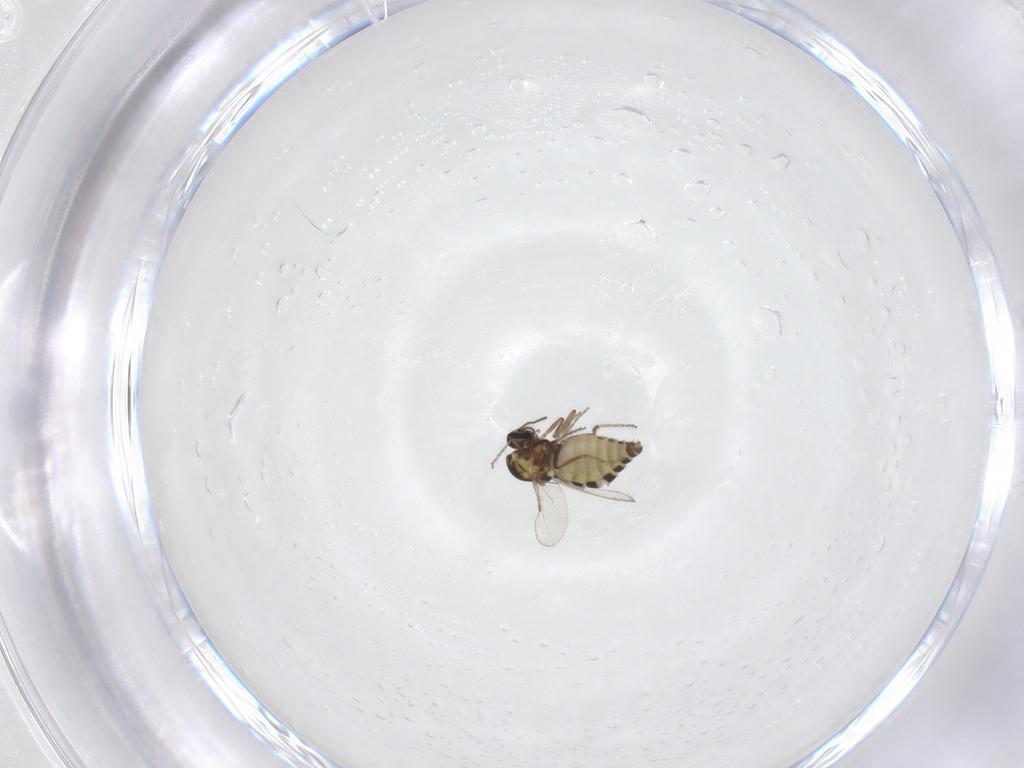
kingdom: Animalia
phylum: Arthropoda
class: Insecta
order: Diptera
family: Ceratopogonidae
